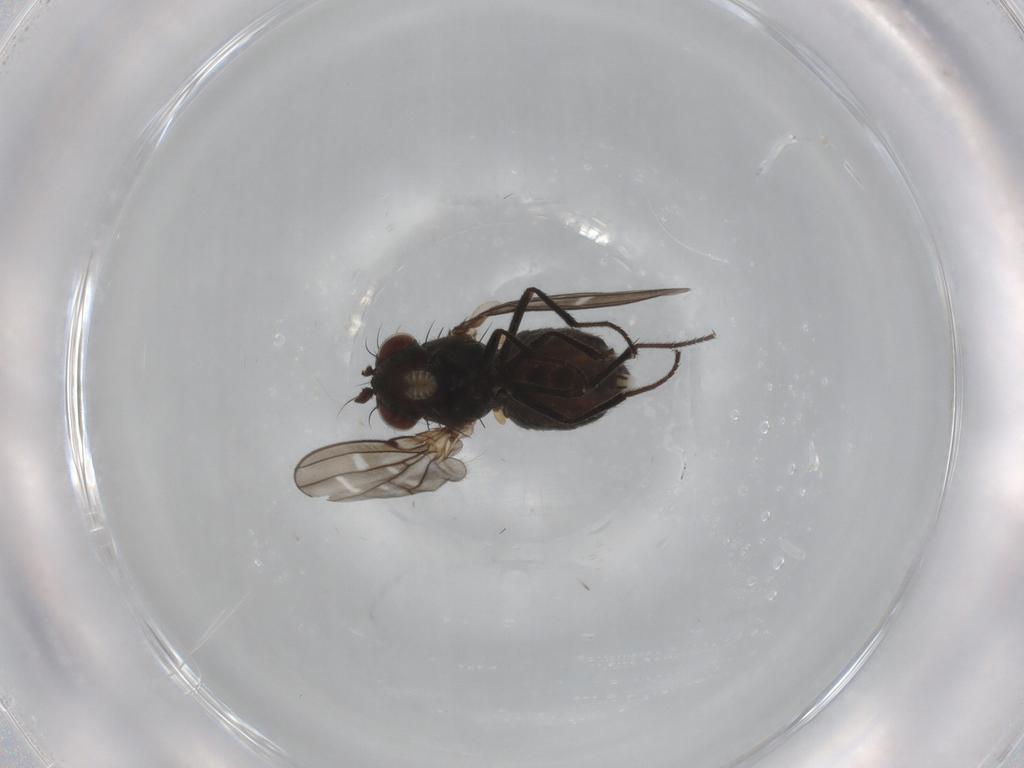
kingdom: Animalia
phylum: Arthropoda
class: Insecta
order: Diptera
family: Ephydridae
